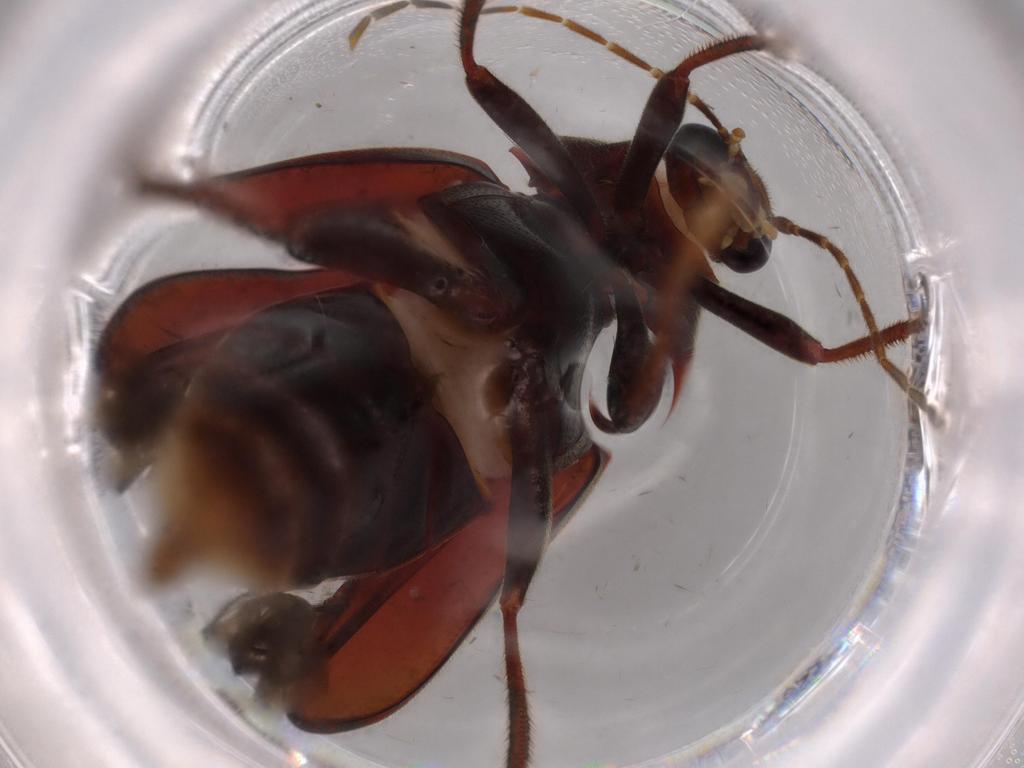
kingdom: Animalia
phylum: Arthropoda
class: Insecta
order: Coleoptera
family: Ptilodactylidae
